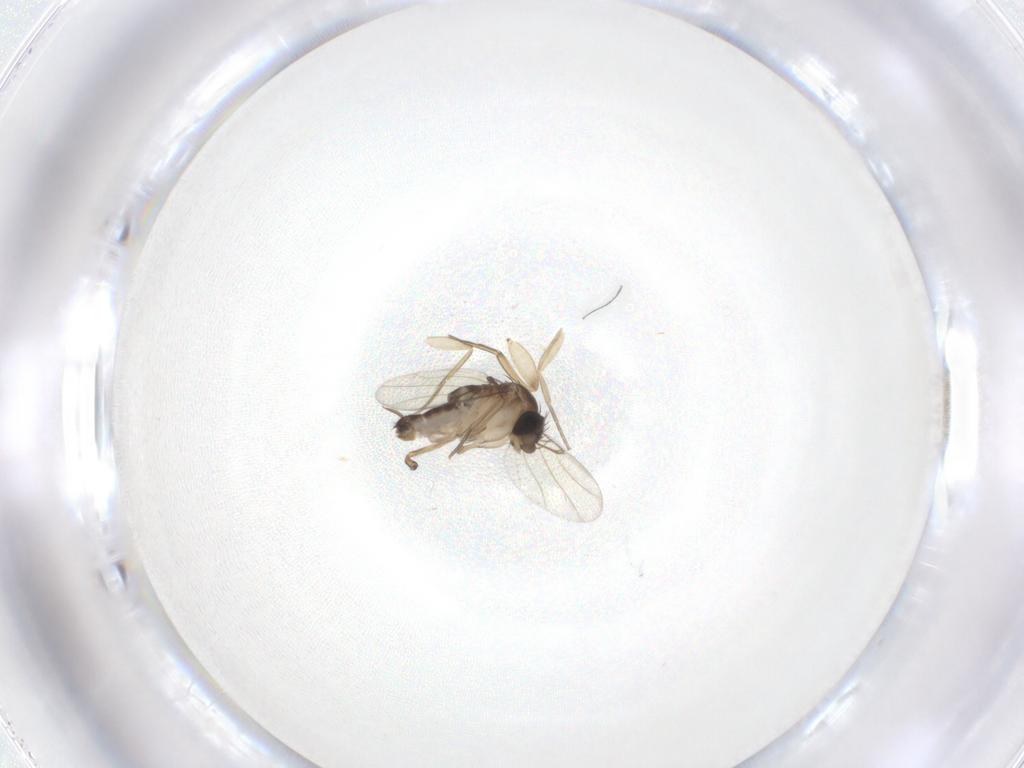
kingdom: Animalia
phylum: Arthropoda
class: Insecta
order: Diptera
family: Phoridae
